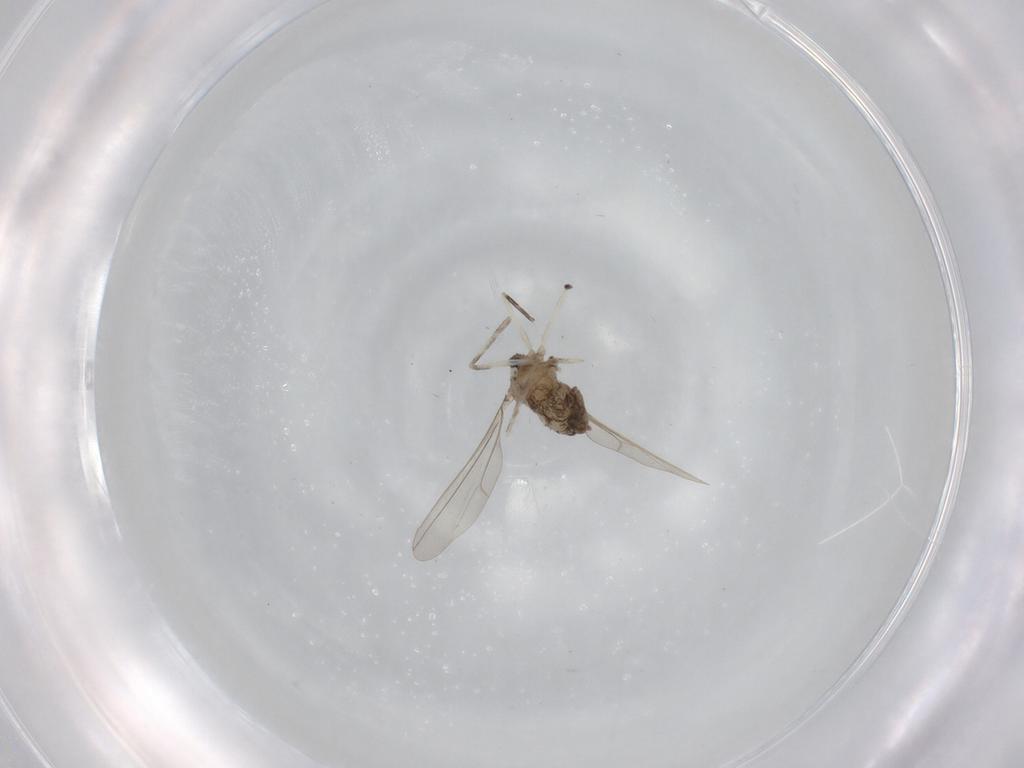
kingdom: Animalia
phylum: Arthropoda
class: Insecta
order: Diptera
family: Cecidomyiidae
